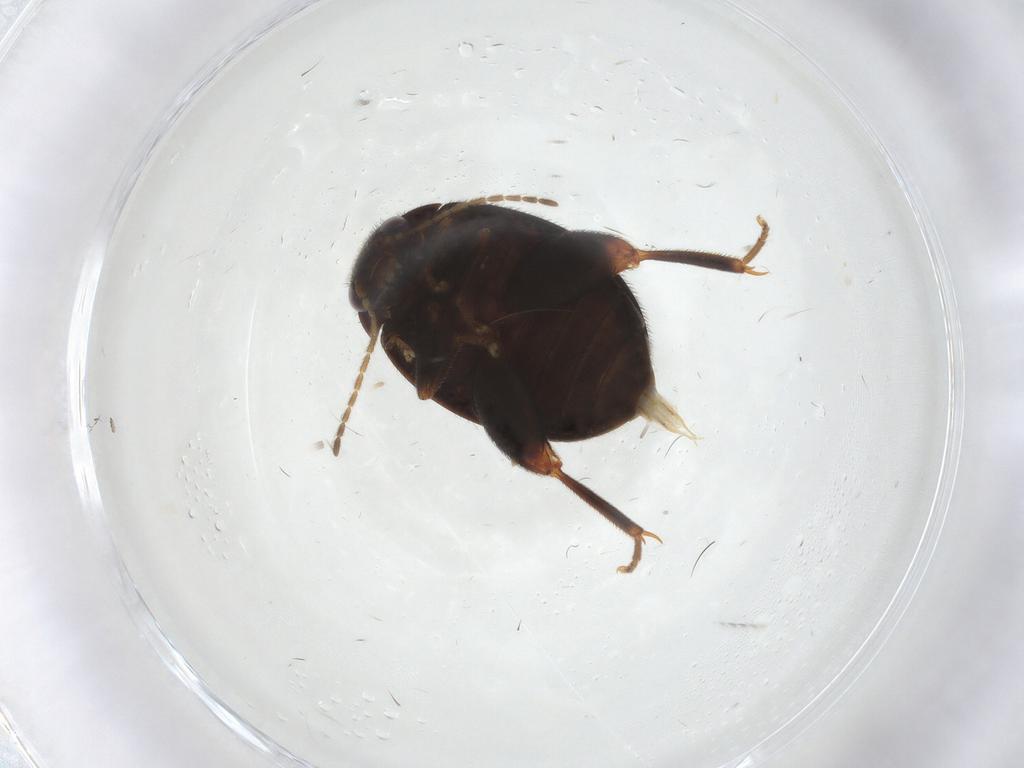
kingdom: Animalia
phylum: Arthropoda
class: Insecta
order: Coleoptera
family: Scirtidae
